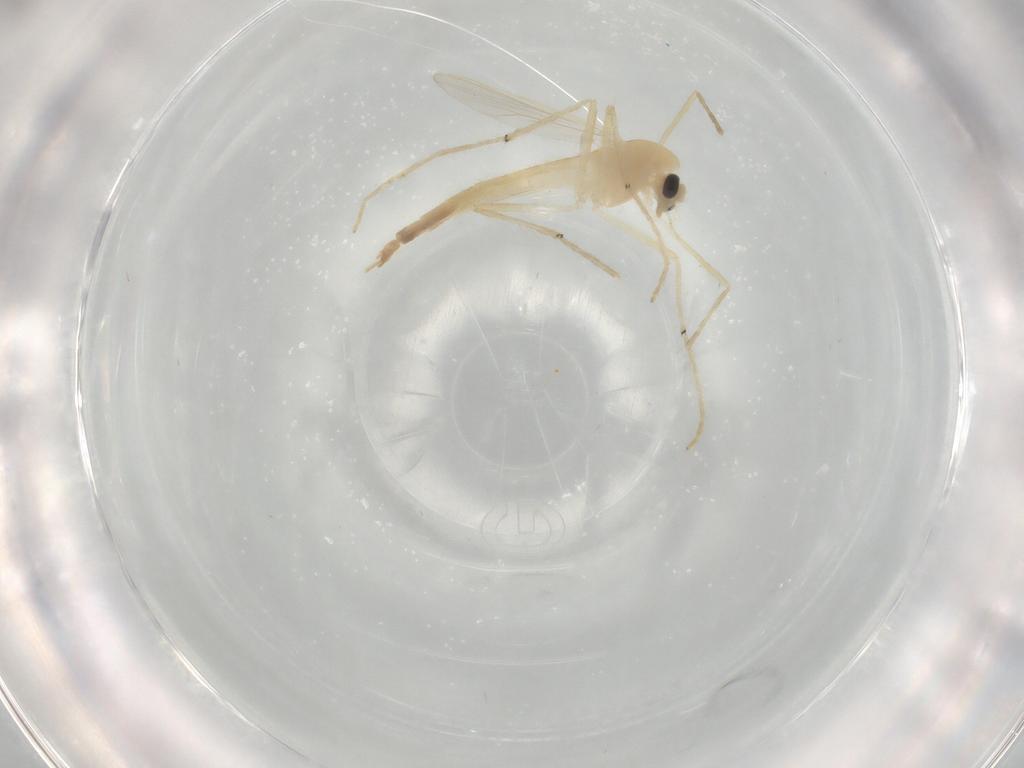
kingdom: Animalia
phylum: Arthropoda
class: Insecta
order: Diptera
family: Chironomidae
